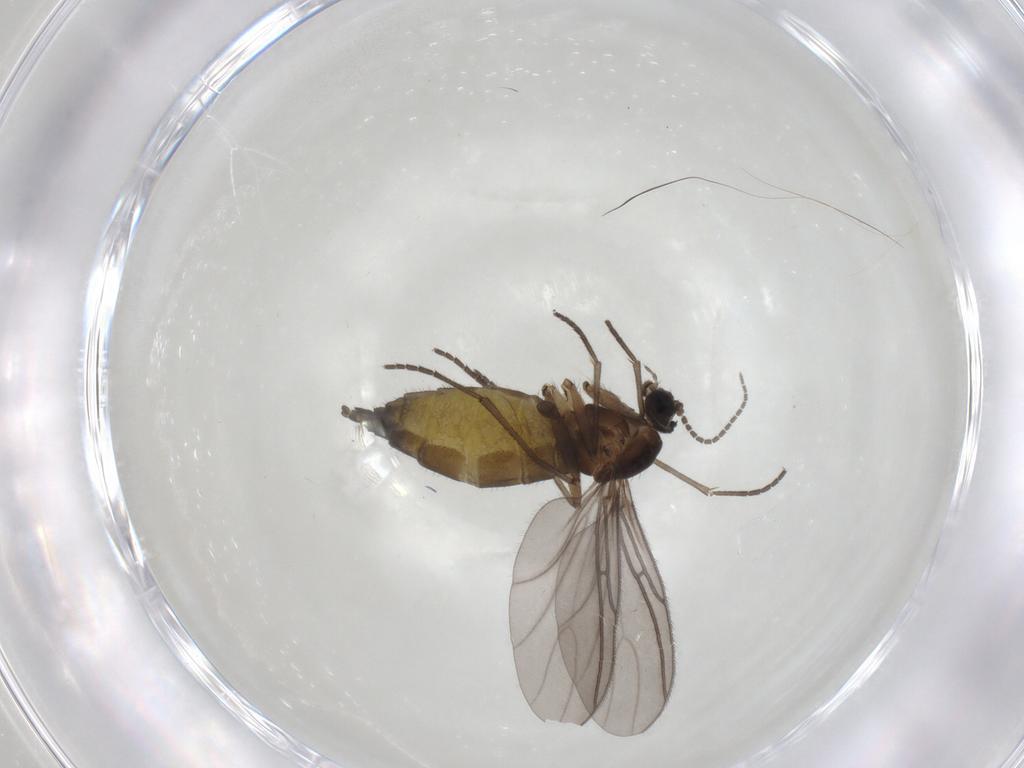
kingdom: Animalia
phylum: Arthropoda
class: Insecta
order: Diptera
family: Sciaridae
